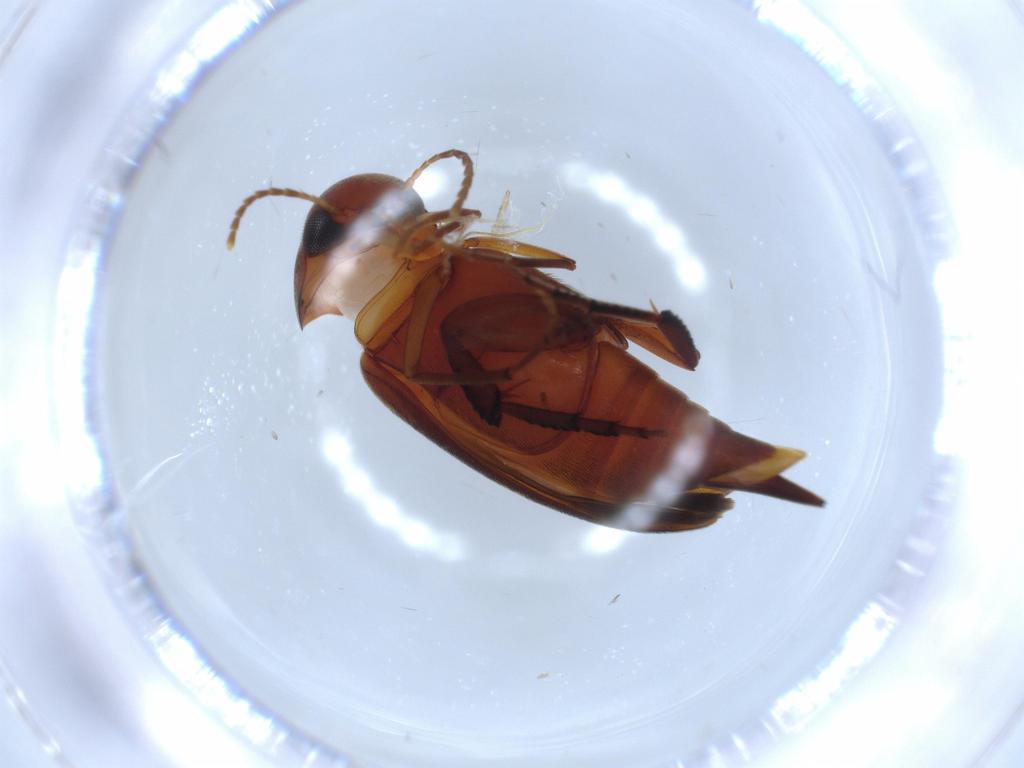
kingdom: Animalia
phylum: Arthropoda
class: Insecta
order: Coleoptera
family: Mordellidae
